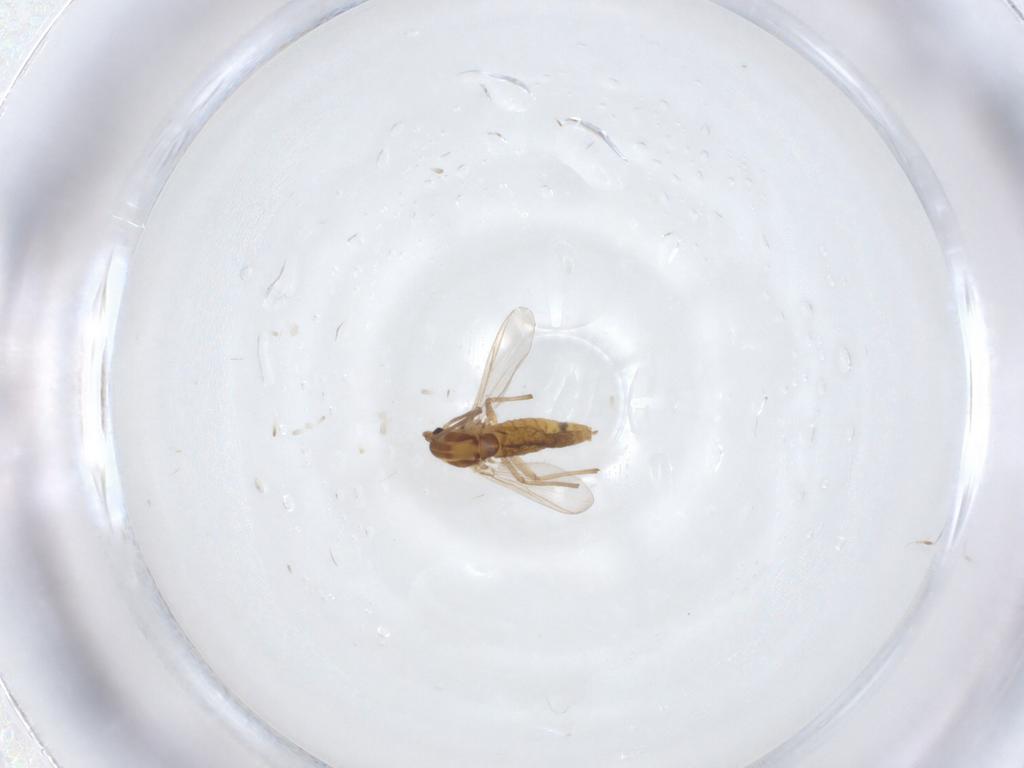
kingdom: Animalia
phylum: Arthropoda
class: Insecta
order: Diptera
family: Chironomidae
